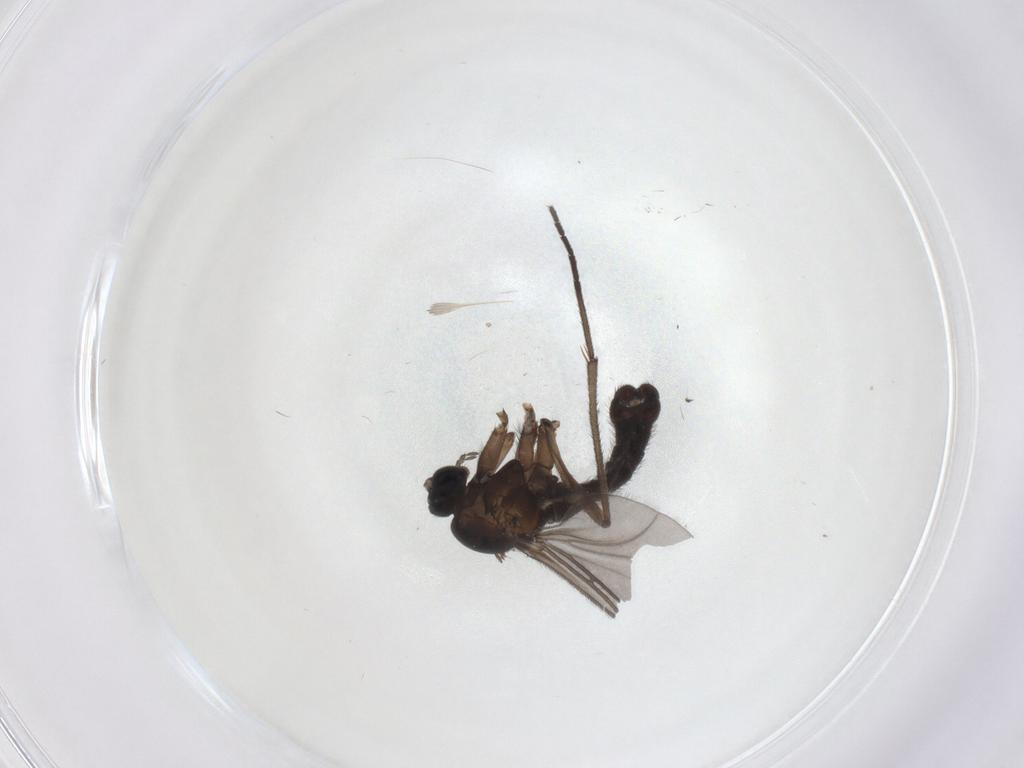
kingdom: Animalia
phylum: Arthropoda
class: Insecta
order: Diptera
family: Sciaridae
